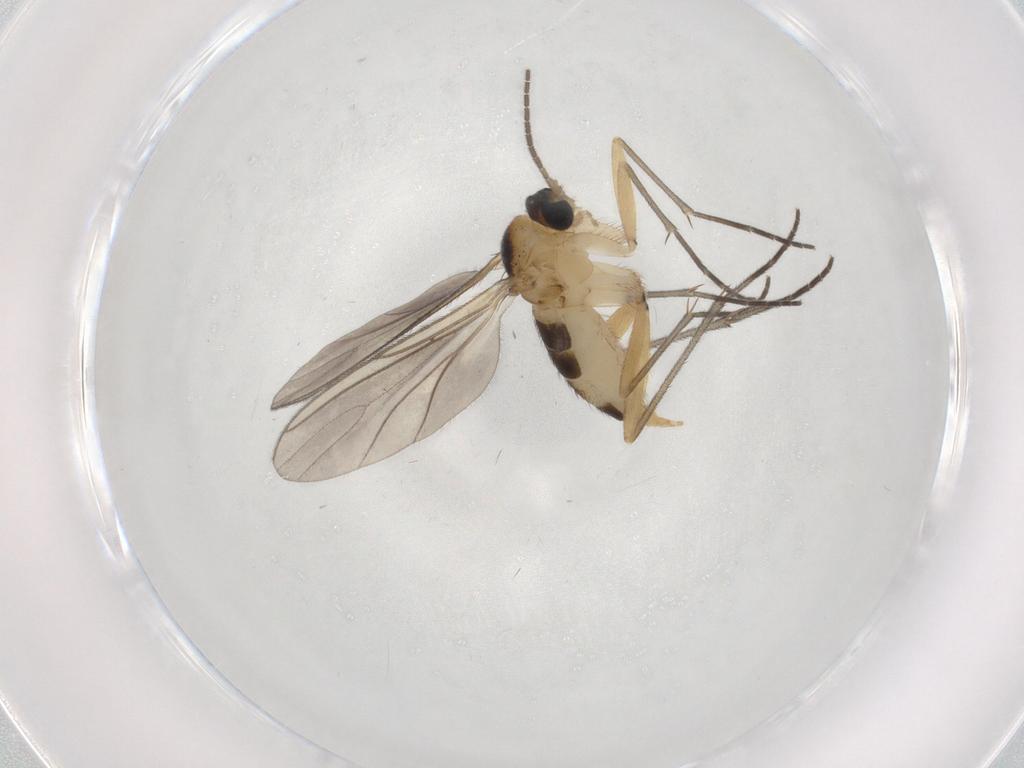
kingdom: Animalia
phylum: Arthropoda
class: Insecta
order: Diptera
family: Sciaridae
